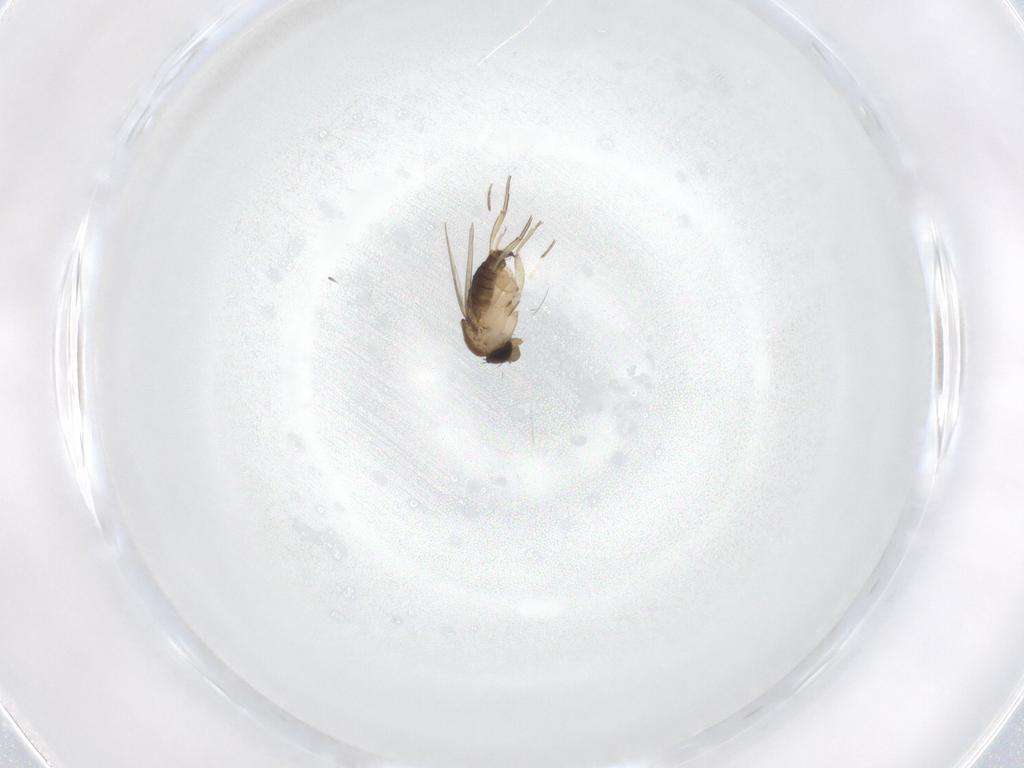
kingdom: Animalia
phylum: Arthropoda
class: Insecta
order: Diptera
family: Phoridae
